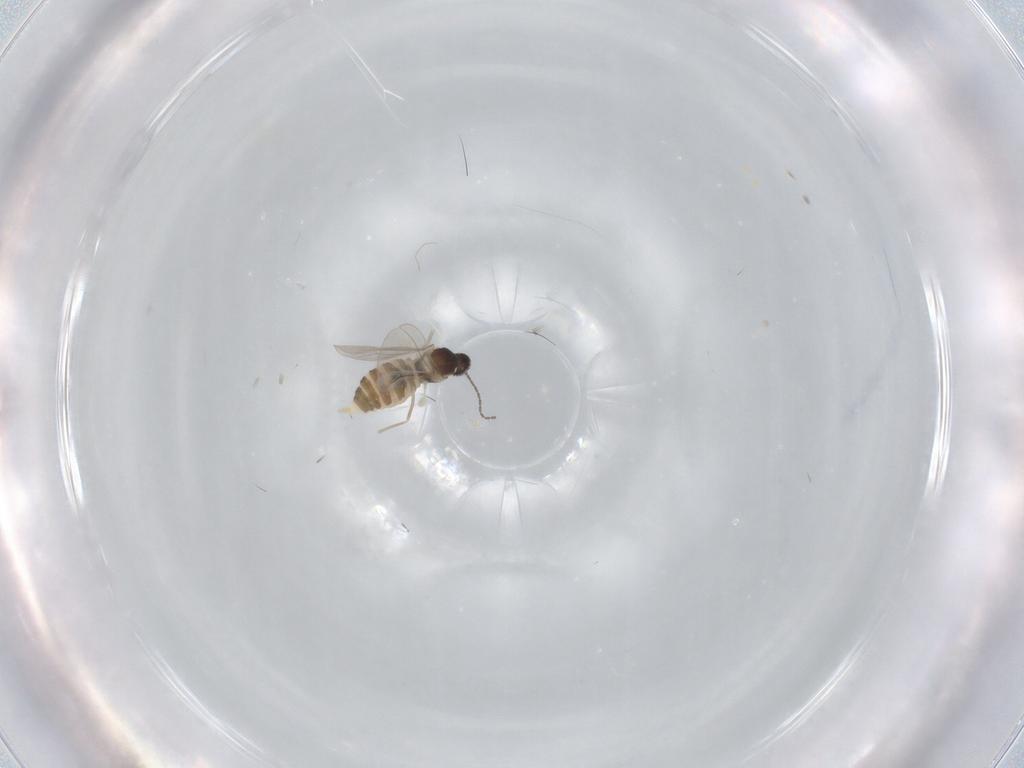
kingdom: Animalia
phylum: Arthropoda
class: Insecta
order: Diptera
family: Cecidomyiidae
